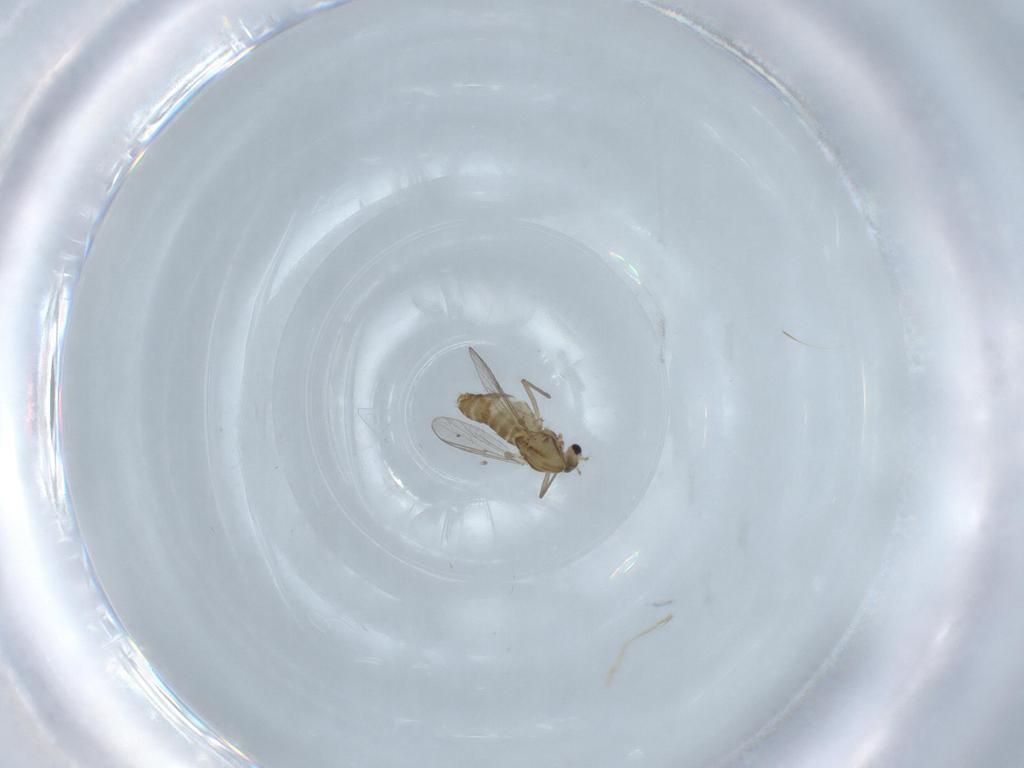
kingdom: Animalia
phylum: Arthropoda
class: Insecta
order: Diptera
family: Chironomidae
